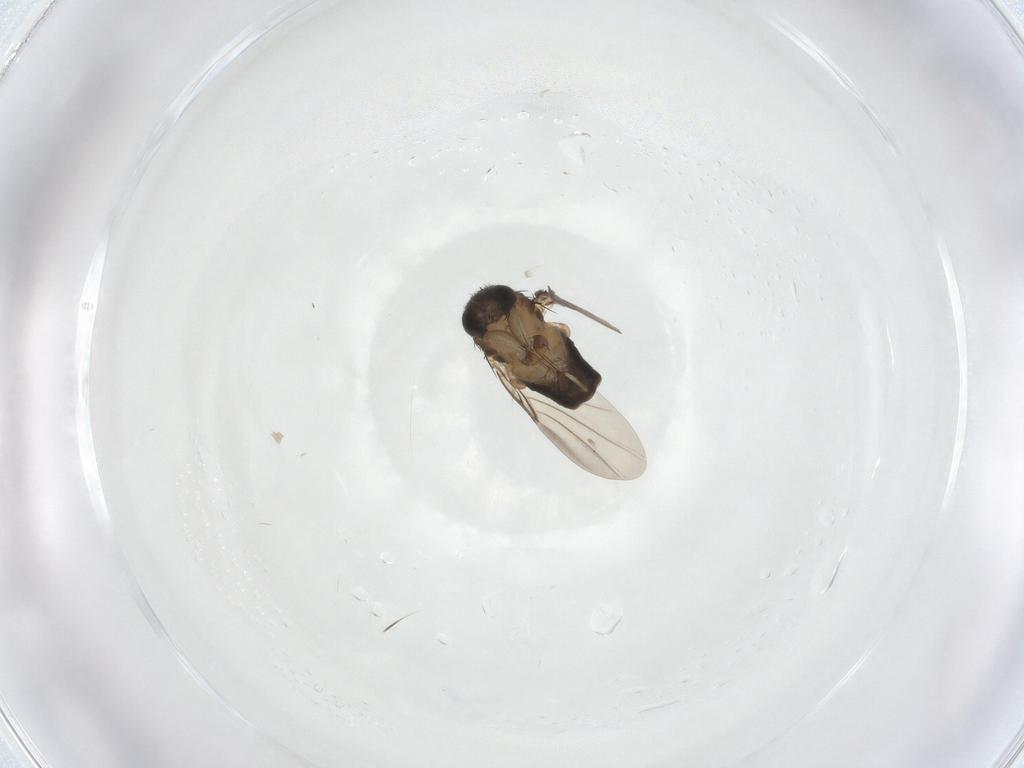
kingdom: Animalia
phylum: Arthropoda
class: Insecta
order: Diptera
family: Phoridae
